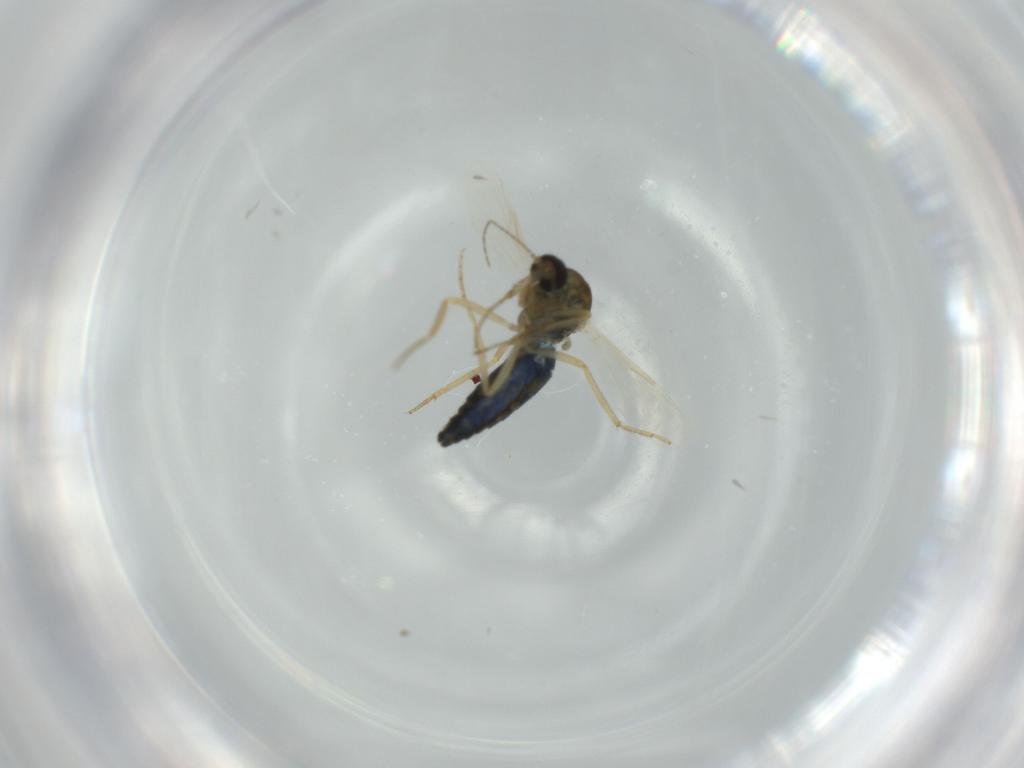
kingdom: Animalia
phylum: Arthropoda
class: Insecta
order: Diptera
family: Ceratopogonidae
